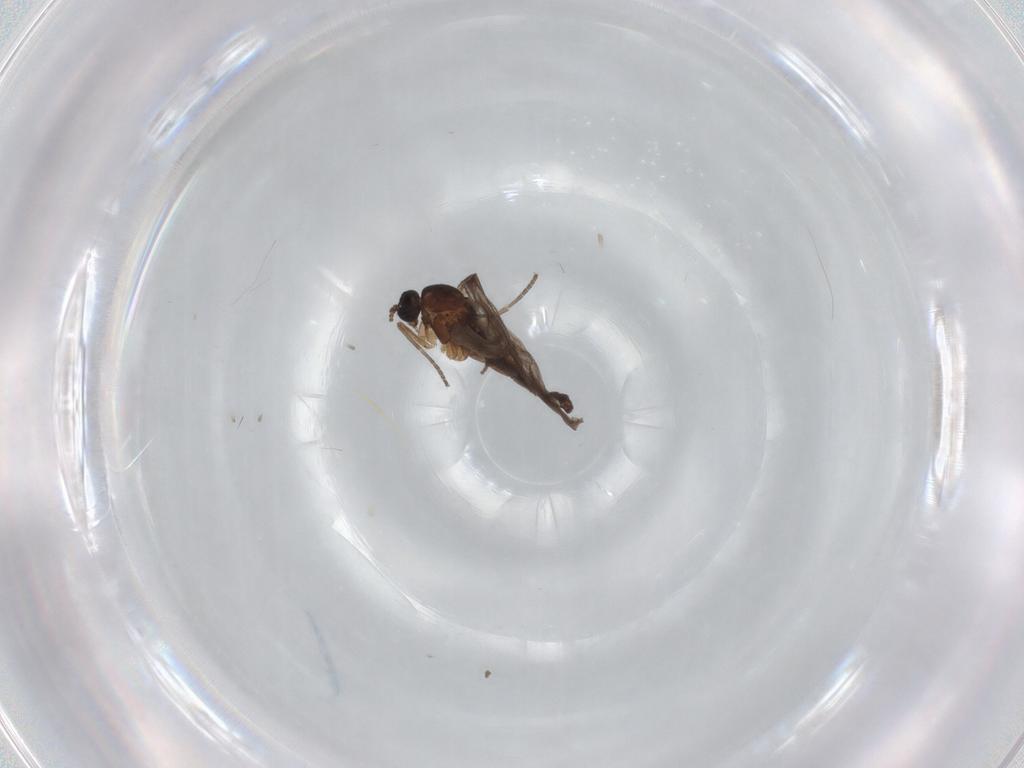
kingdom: Animalia
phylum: Arthropoda
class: Insecta
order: Diptera
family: Sciaridae
